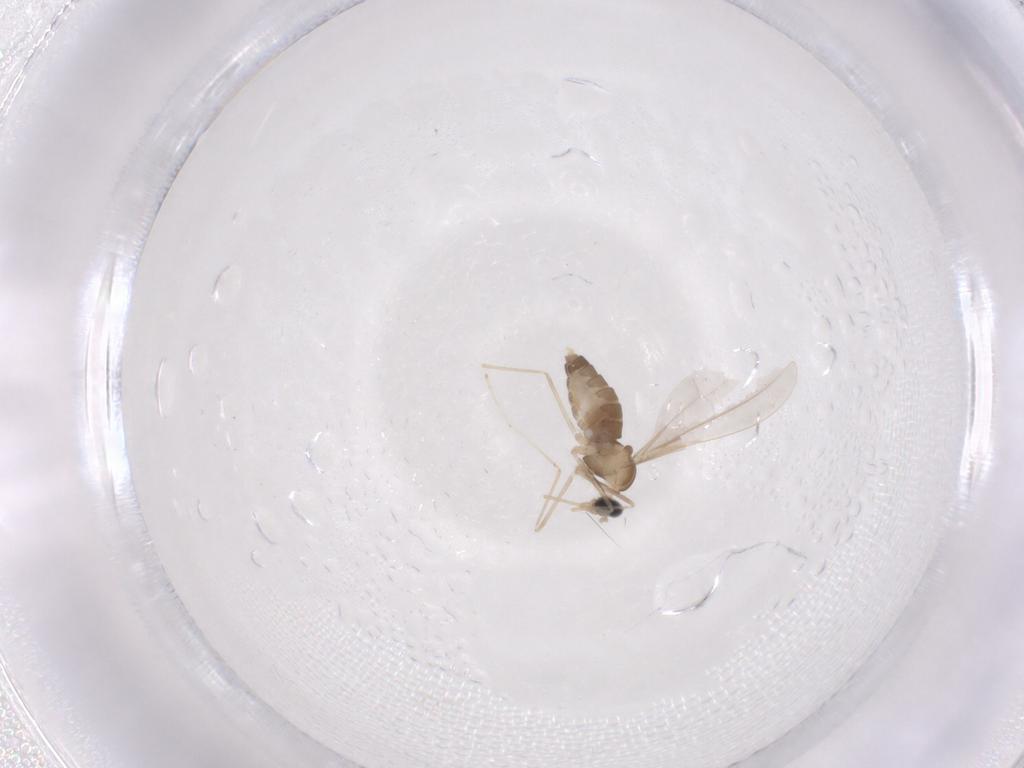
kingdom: Animalia
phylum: Arthropoda
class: Insecta
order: Diptera
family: Cecidomyiidae
